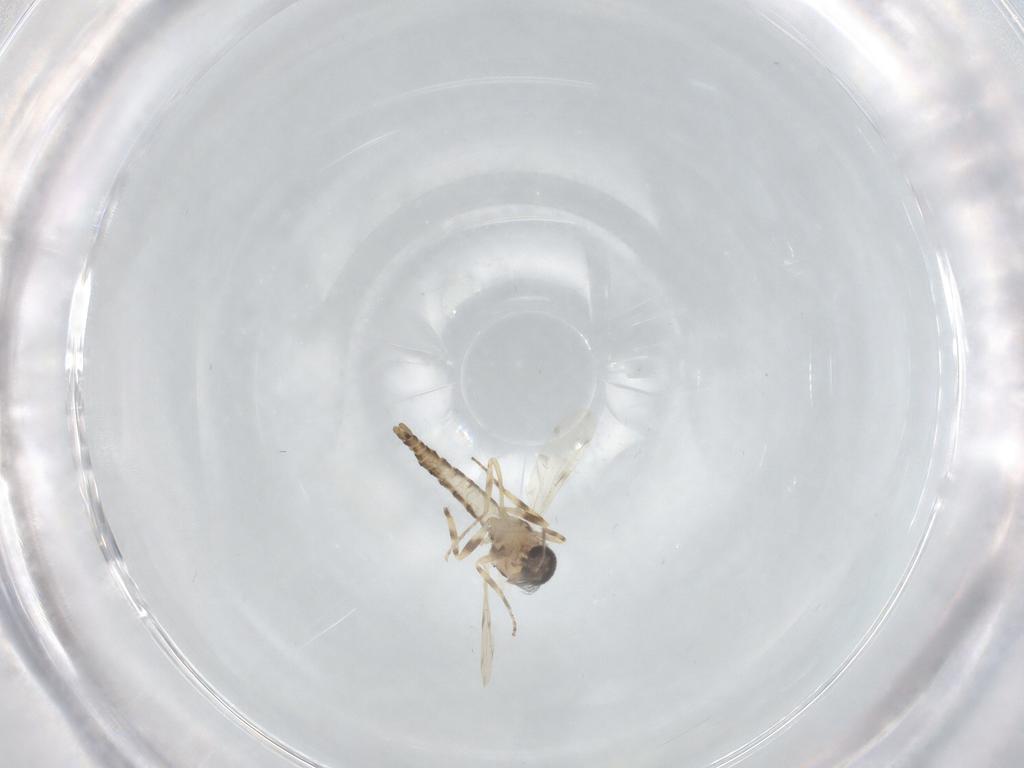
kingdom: Animalia
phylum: Arthropoda
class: Insecta
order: Diptera
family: Ceratopogonidae
